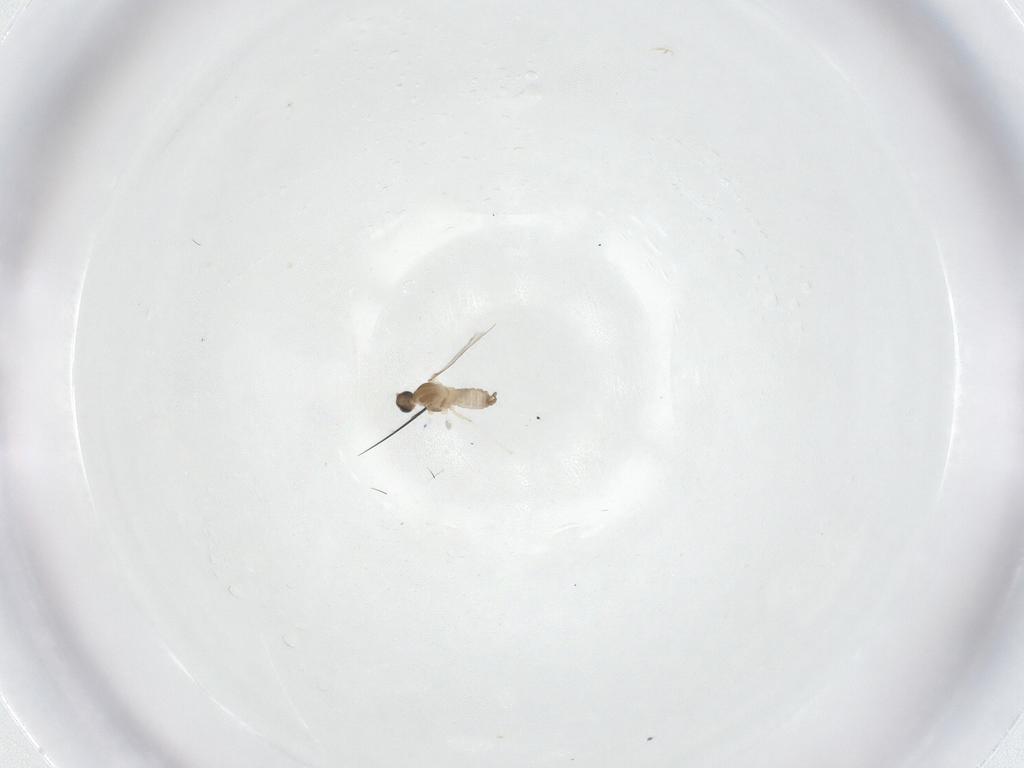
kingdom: Animalia
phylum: Arthropoda
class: Insecta
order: Diptera
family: Cecidomyiidae
